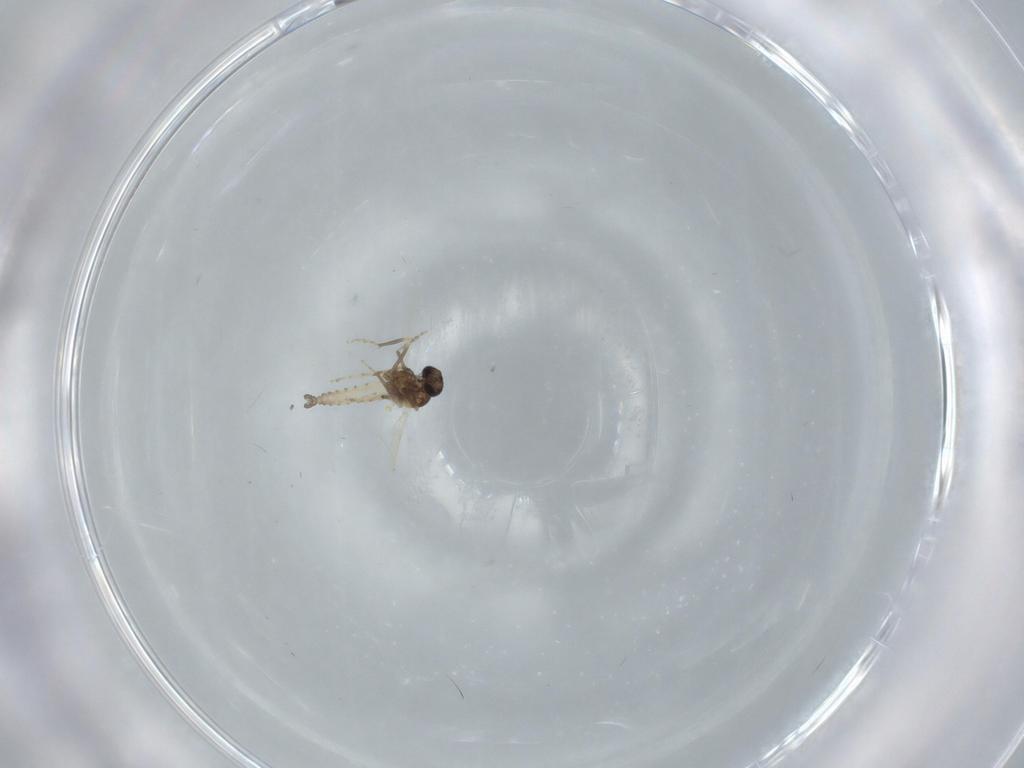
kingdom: Animalia
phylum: Arthropoda
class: Insecta
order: Diptera
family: Ceratopogonidae
